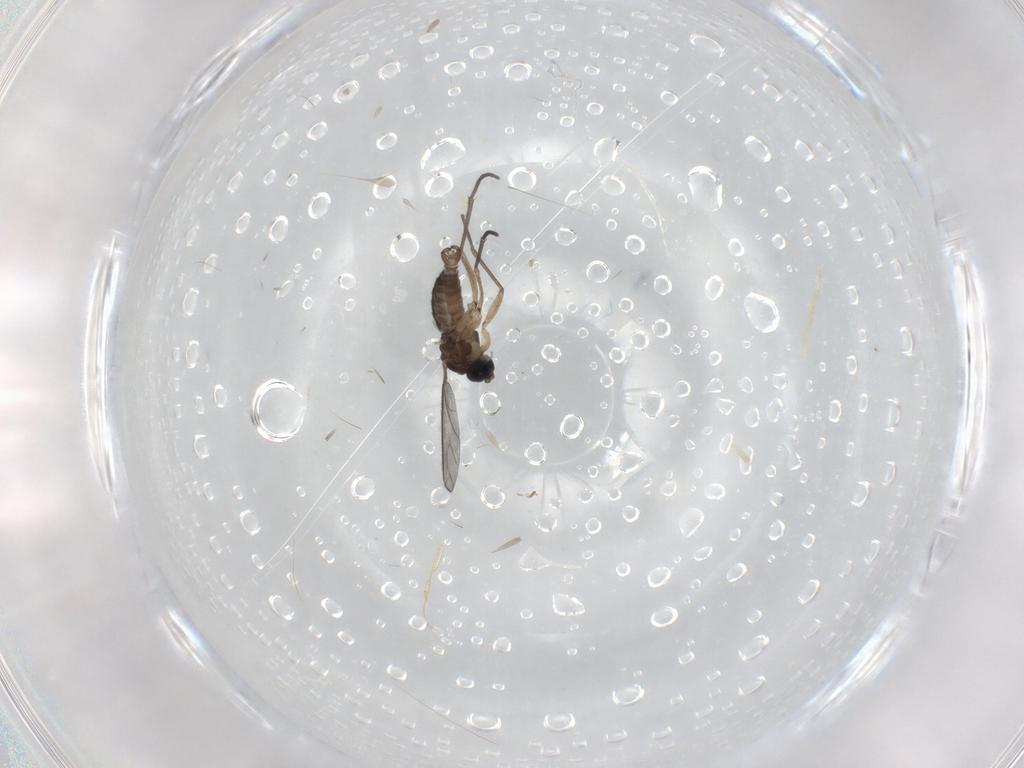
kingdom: Animalia
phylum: Arthropoda
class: Insecta
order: Diptera
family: Sciaridae
